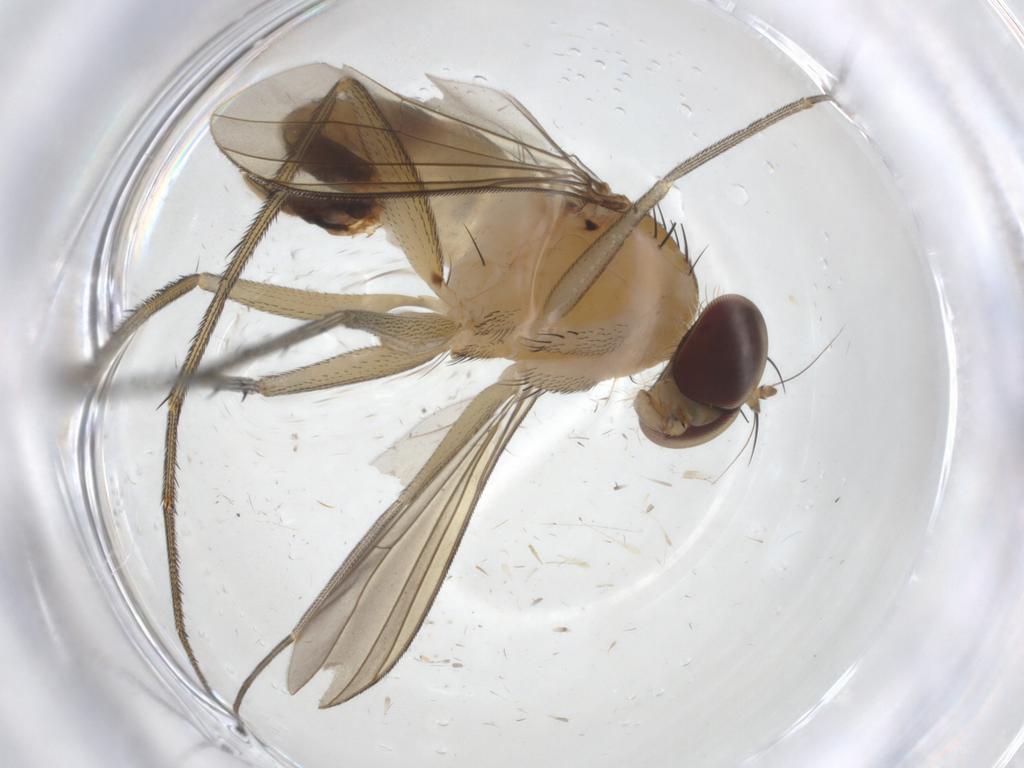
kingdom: Animalia
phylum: Arthropoda
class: Insecta
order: Diptera
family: Dolichopodidae
